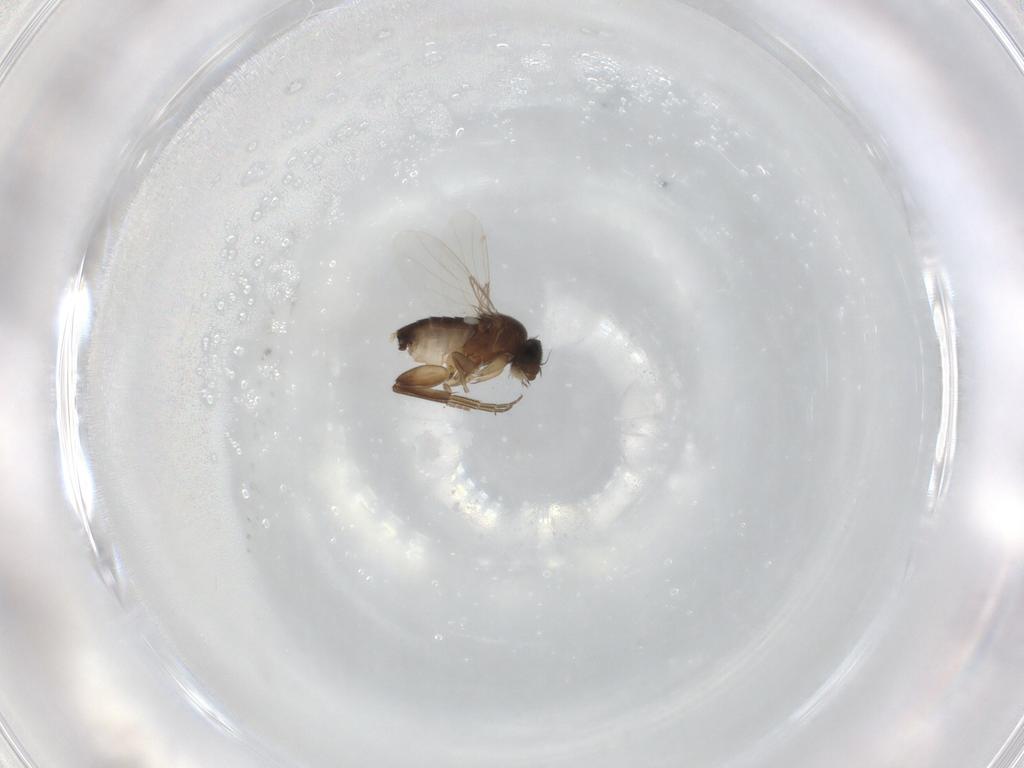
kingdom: Animalia
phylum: Arthropoda
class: Insecta
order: Diptera
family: Phoridae
